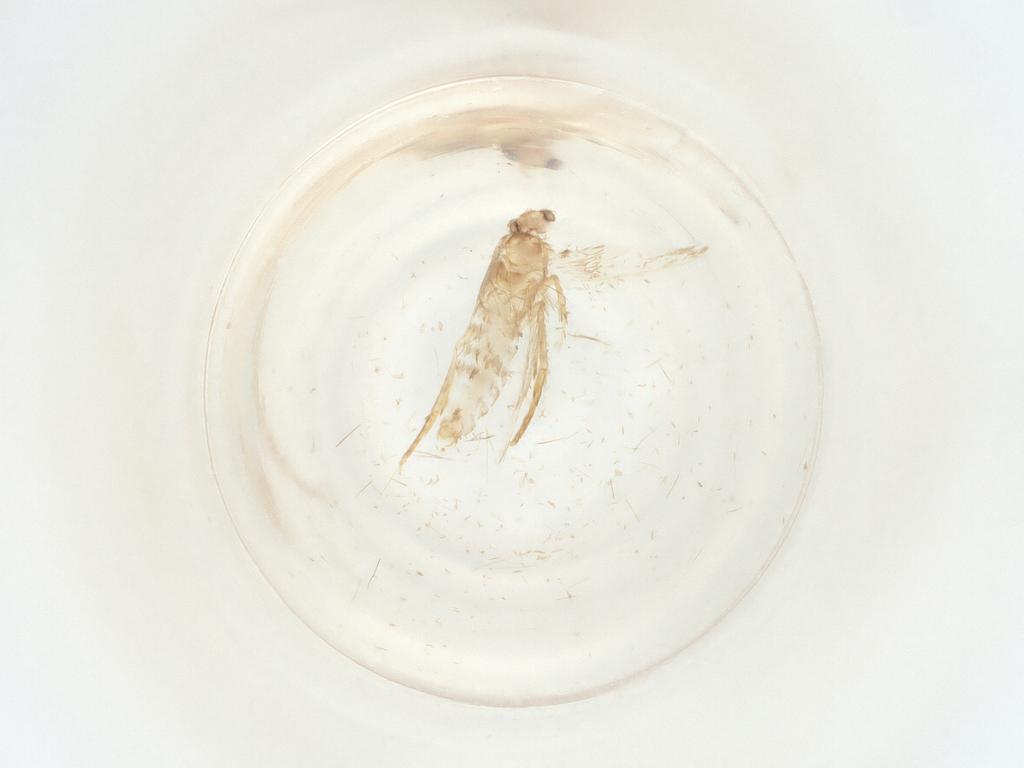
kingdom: Animalia
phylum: Arthropoda
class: Insecta
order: Lepidoptera
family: Nepticulidae
